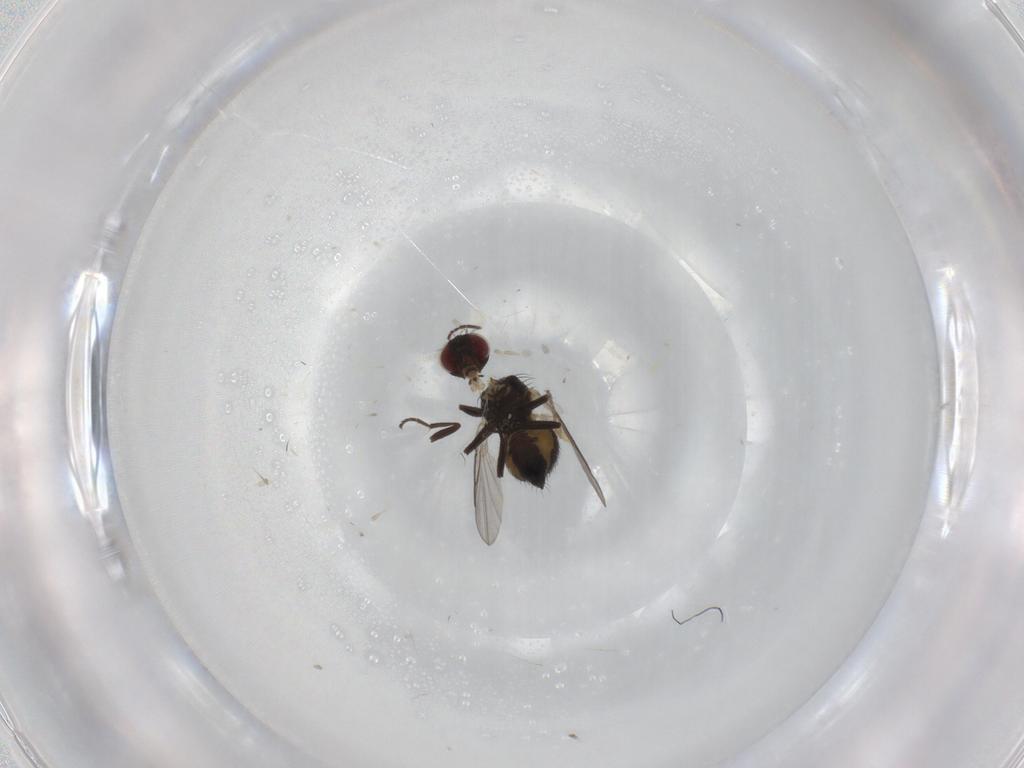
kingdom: Animalia
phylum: Arthropoda
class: Insecta
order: Diptera
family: Agromyzidae
